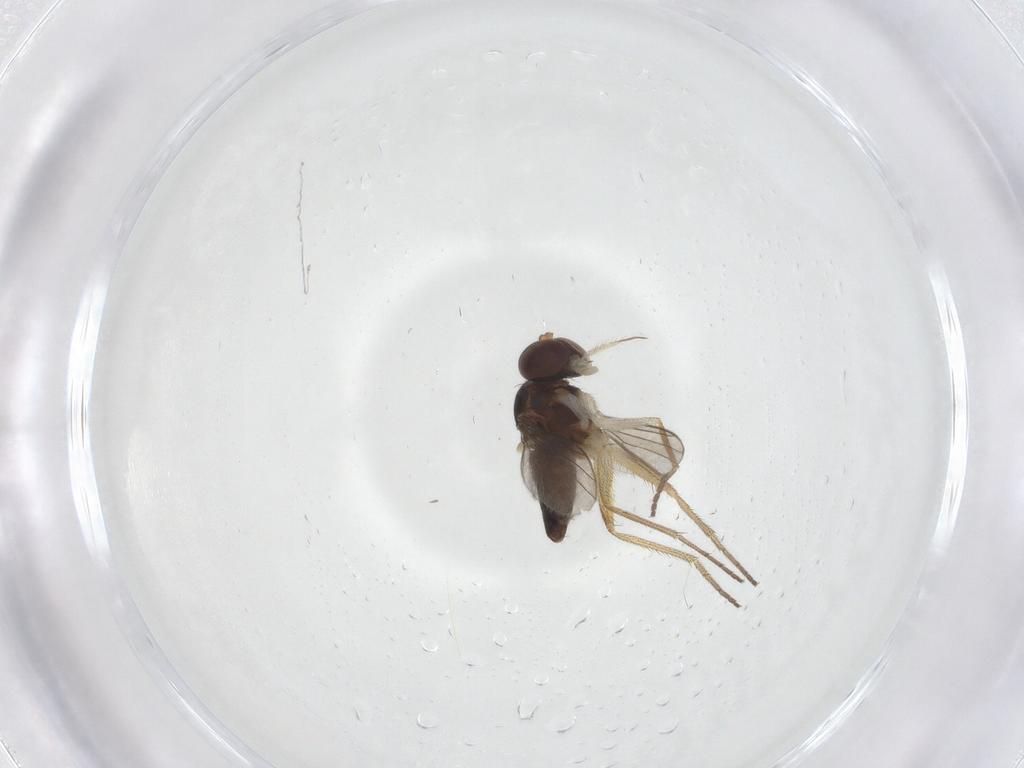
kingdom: Animalia
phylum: Arthropoda
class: Insecta
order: Diptera
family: Dolichopodidae
